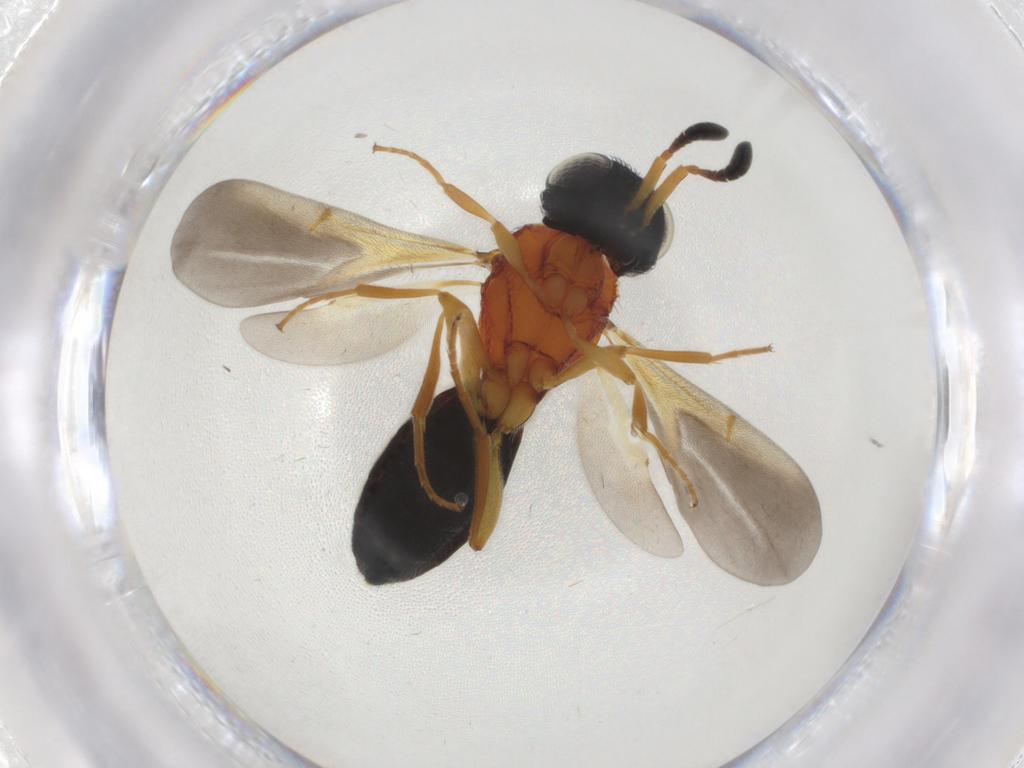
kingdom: Animalia
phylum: Arthropoda
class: Insecta
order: Hymenoptera
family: Scelionidae
